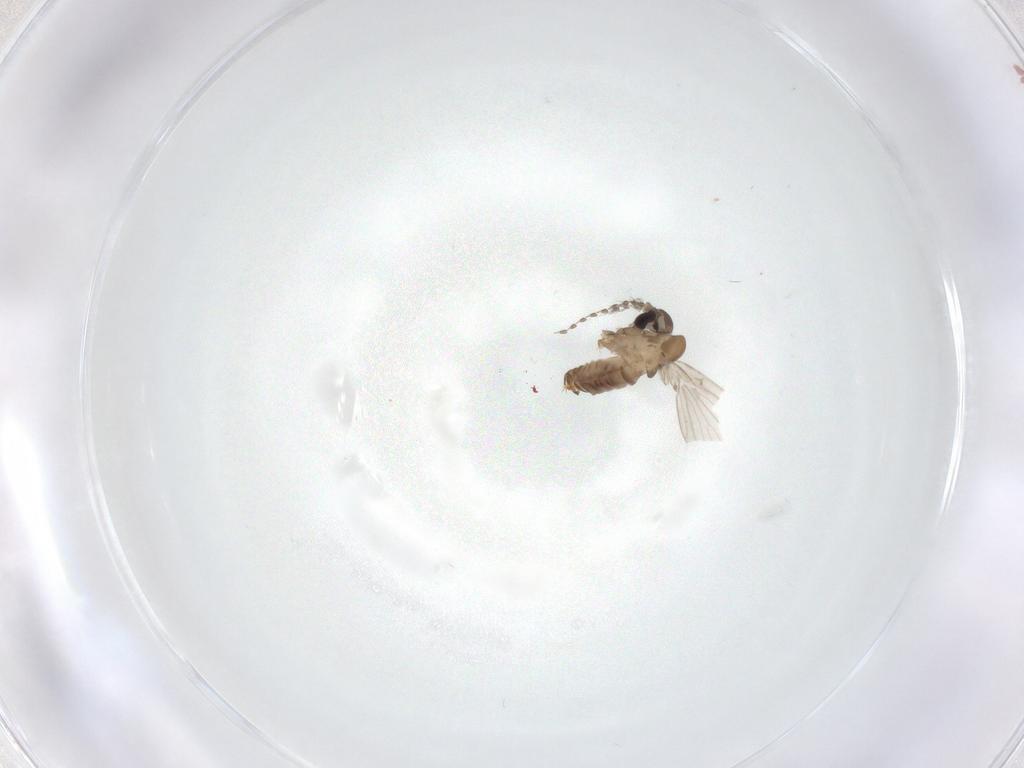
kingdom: Animalia
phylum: Arthropoda
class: Insecta
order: Diptera
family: Psychodidae
